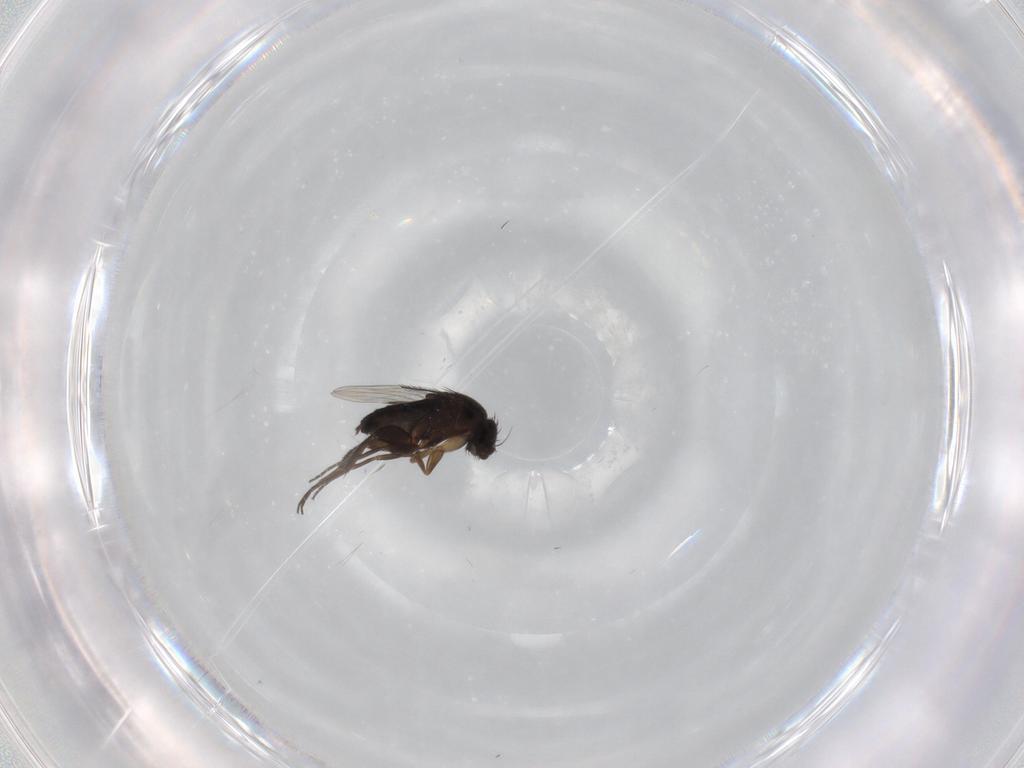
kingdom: Animalia
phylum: Arthropoda
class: Insecta
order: Diptera
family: Phoridae
